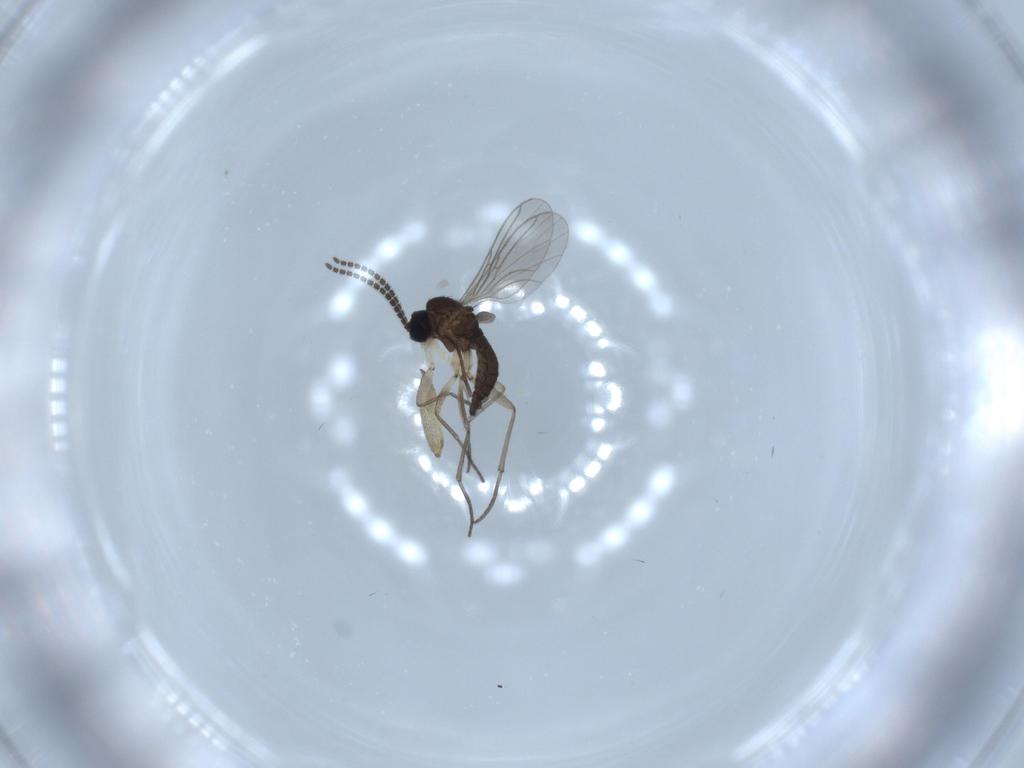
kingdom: Animalia
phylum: Arthropoda
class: Insecta
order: Diptera
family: Sciaridae
